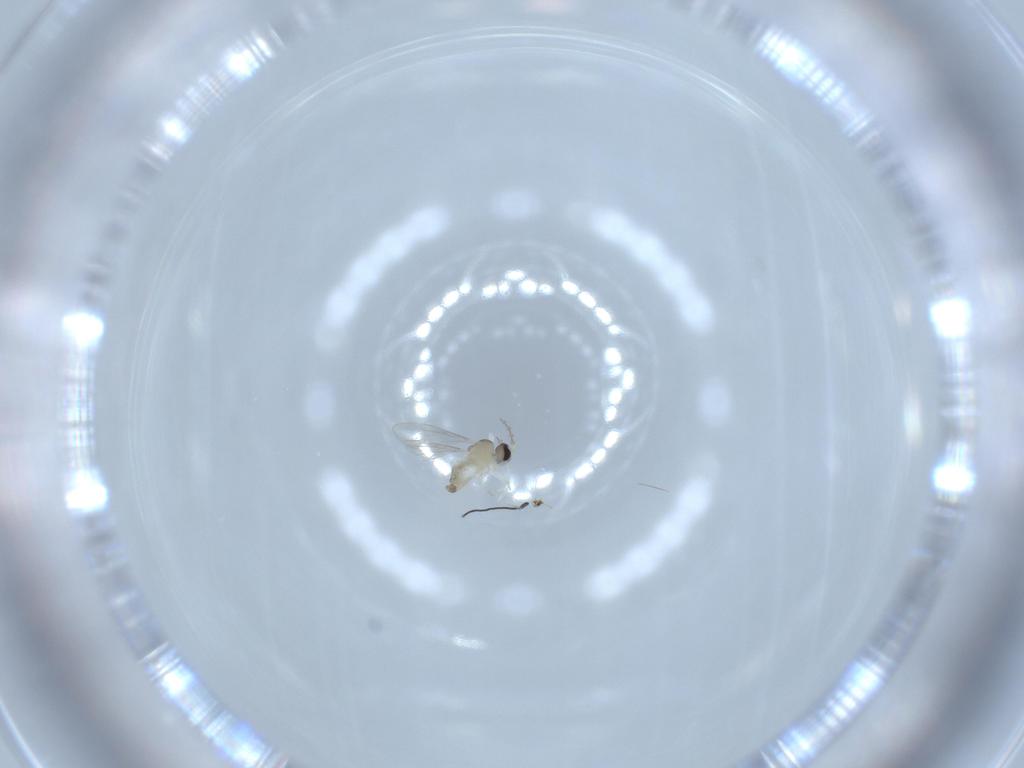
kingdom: Animalia
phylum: Arthropoda
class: Insecta
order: Diptera
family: Cecidomyiidae
